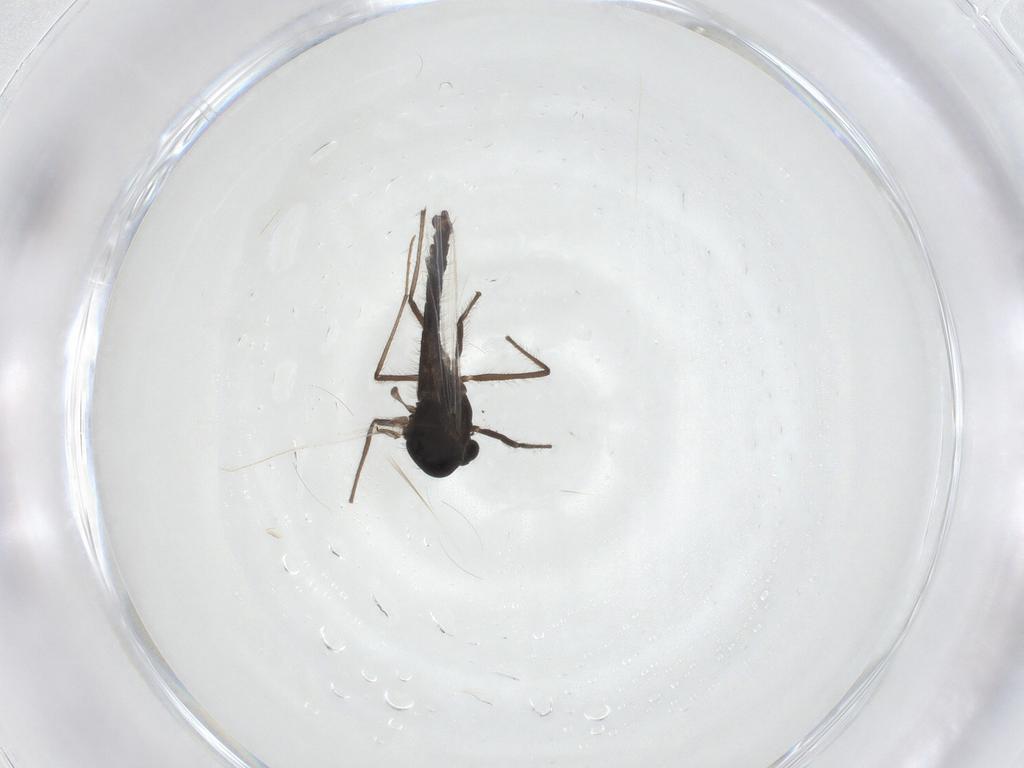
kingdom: Animalia
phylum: Arthropoda
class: Insecta
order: Diptera
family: Chironomidae
